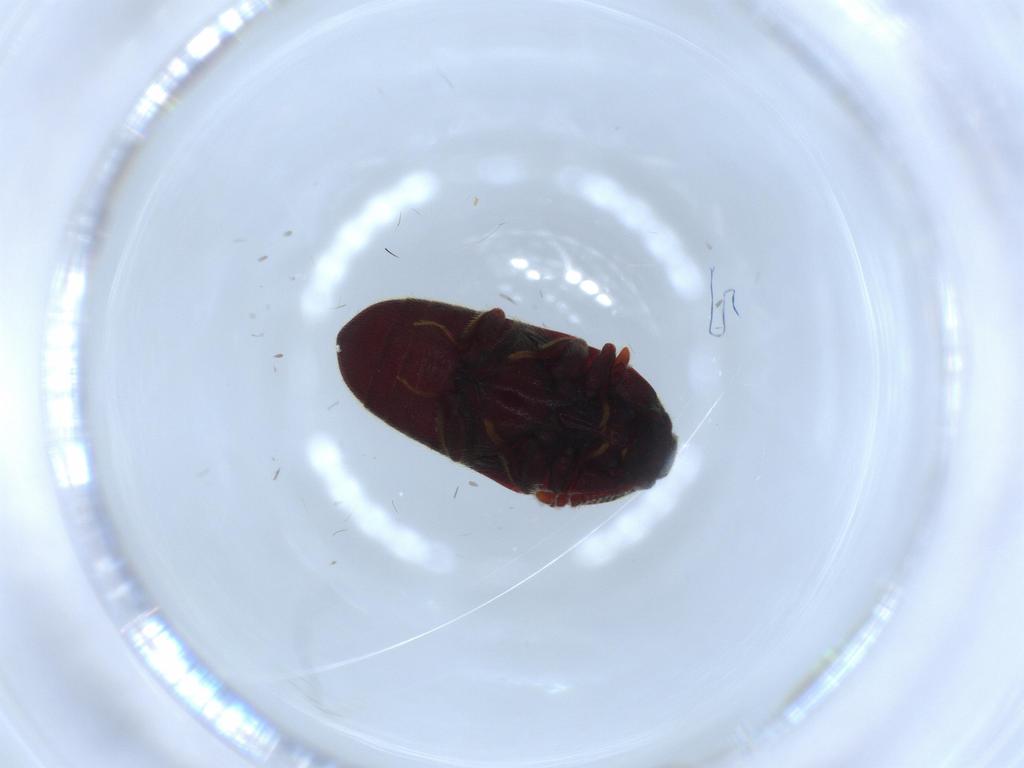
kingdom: Animalia
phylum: Arthropoda
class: Insecta
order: Coleoptera
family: Throscidae
